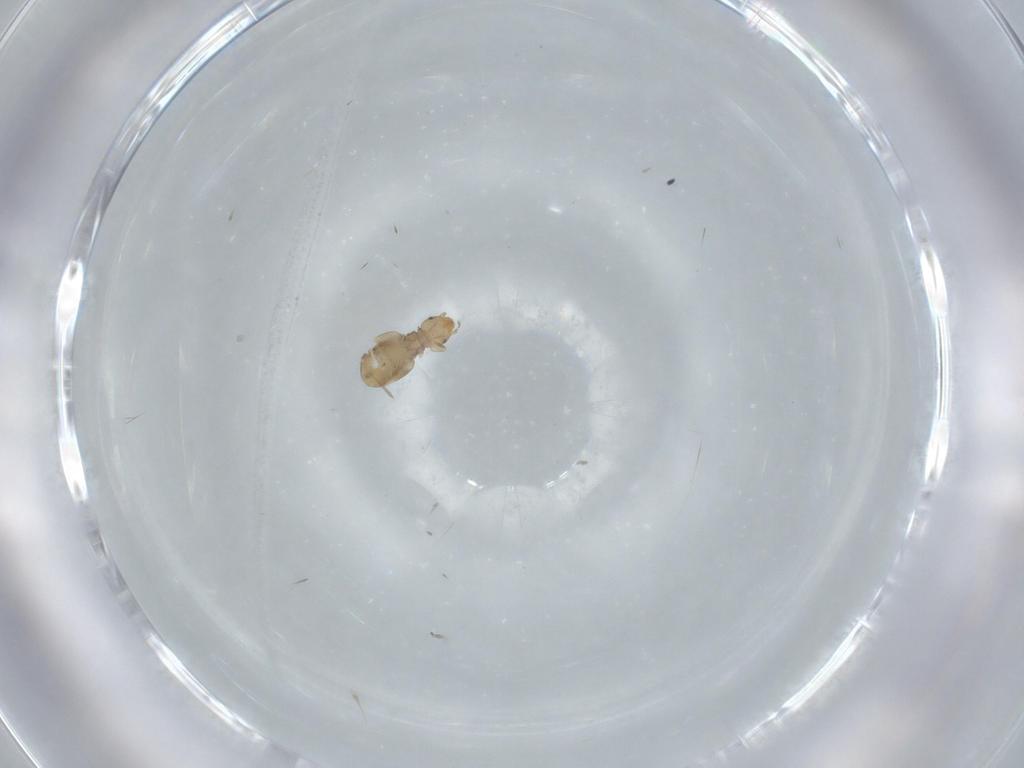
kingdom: Animalia
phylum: Arthropoda
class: Insecta
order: Psocodea
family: Liposcelididae
